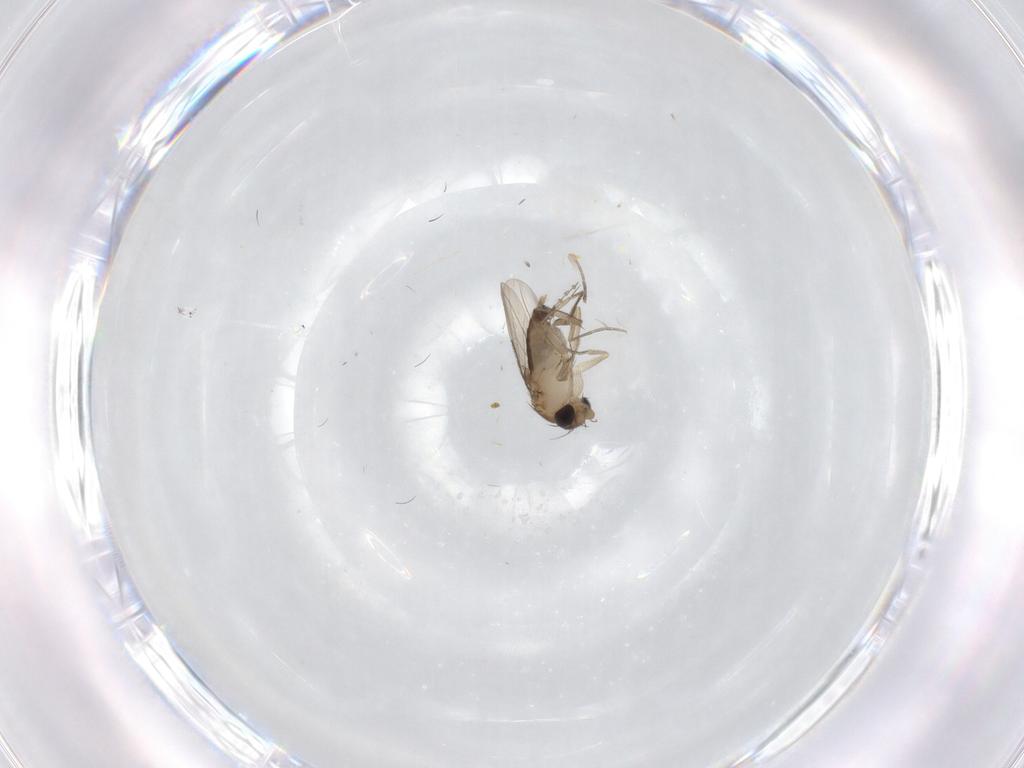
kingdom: Animalia
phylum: Arthropoda
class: Insecta
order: Diptera
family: Phoridae
